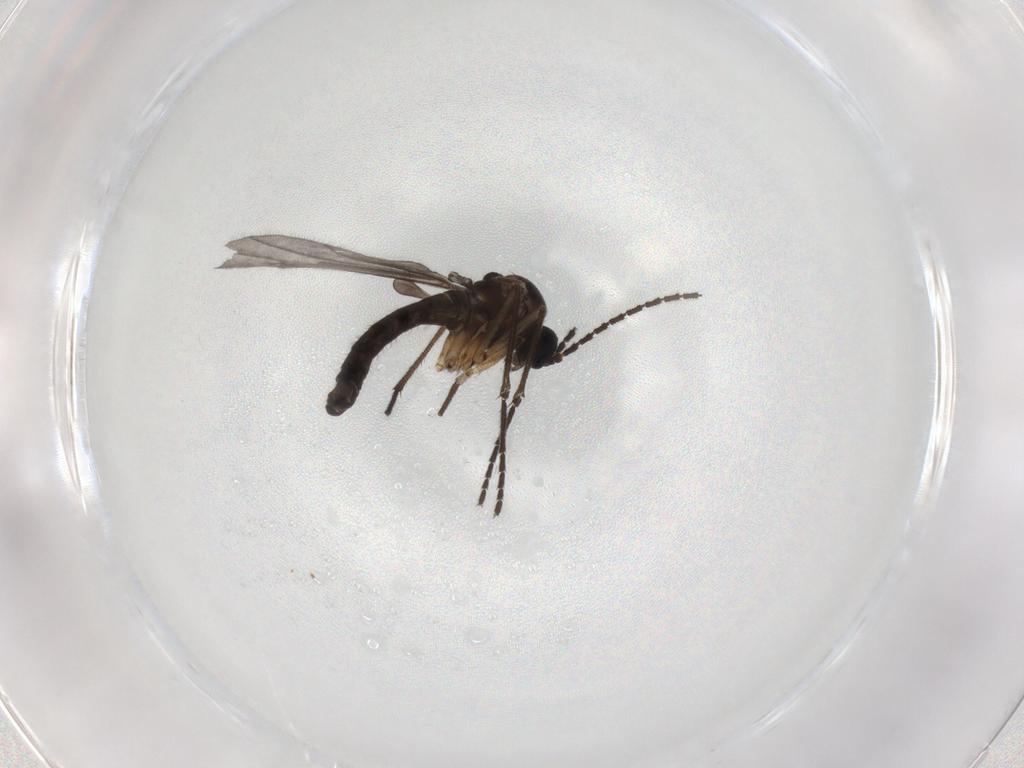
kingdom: Animalia
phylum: Arthropoda
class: Insecta
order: Diptera
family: Sciaridae
